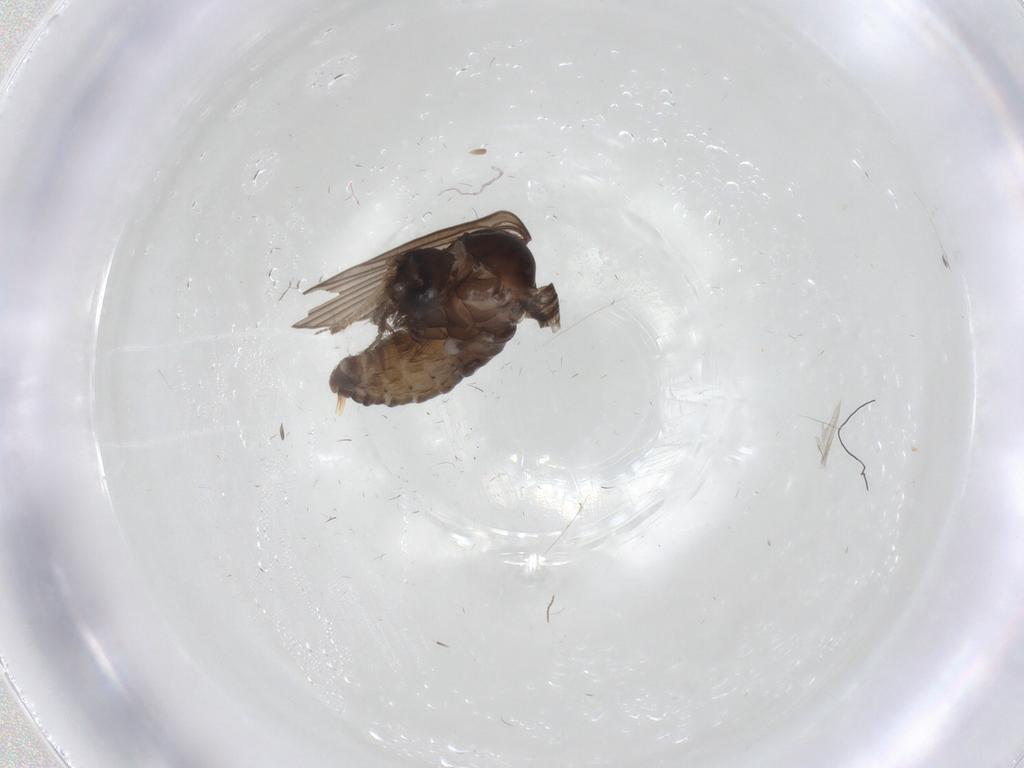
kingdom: Animalia
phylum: Arthropoda
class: Insecta
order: Diptera
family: Psychodidae
